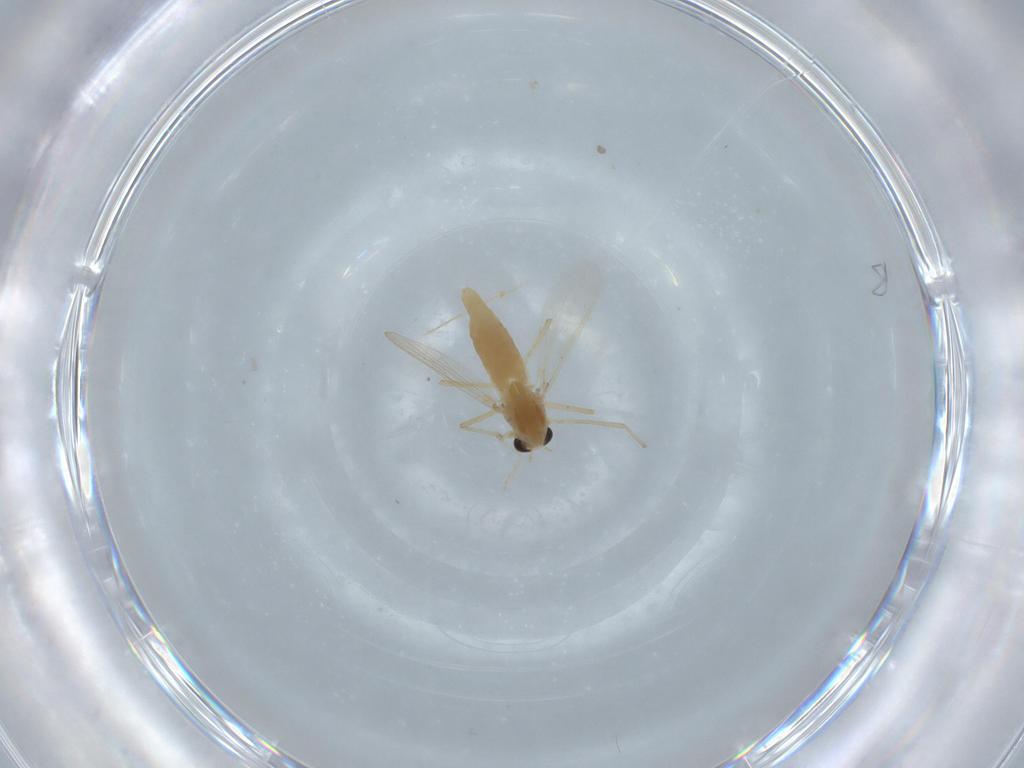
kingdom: Animalia
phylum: Arthropoda
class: Insecta
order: Diptera
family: Chironomidae
